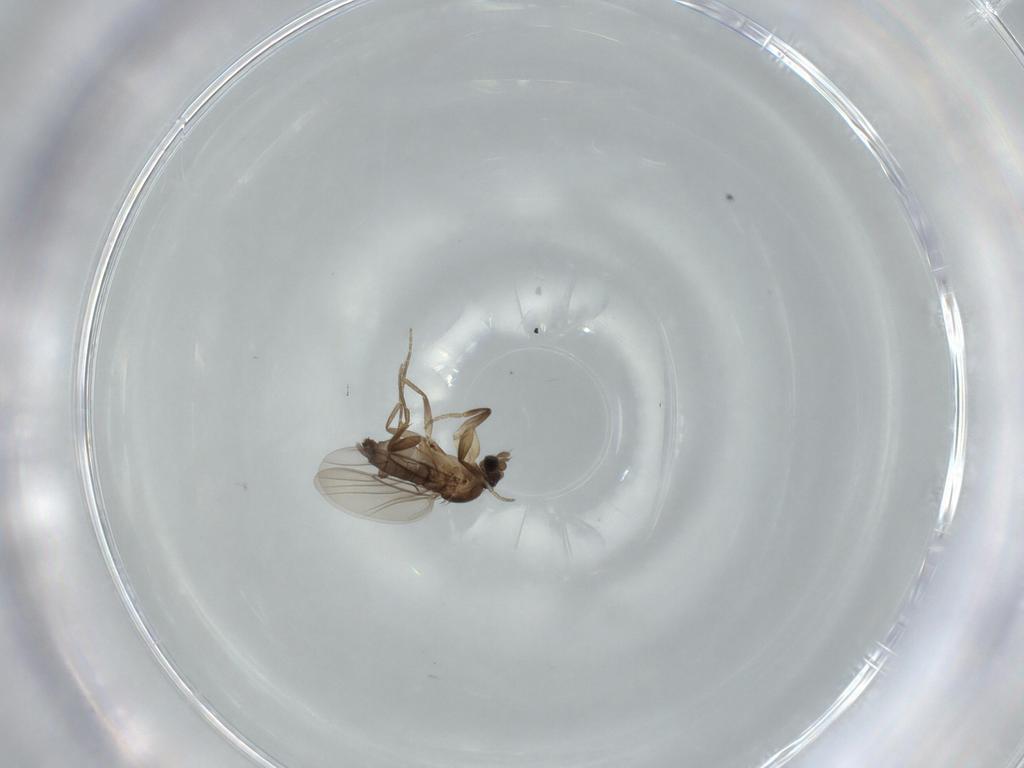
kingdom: Animalia
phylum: Arthropoda
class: Insecta
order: Diptera
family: Phoridae
